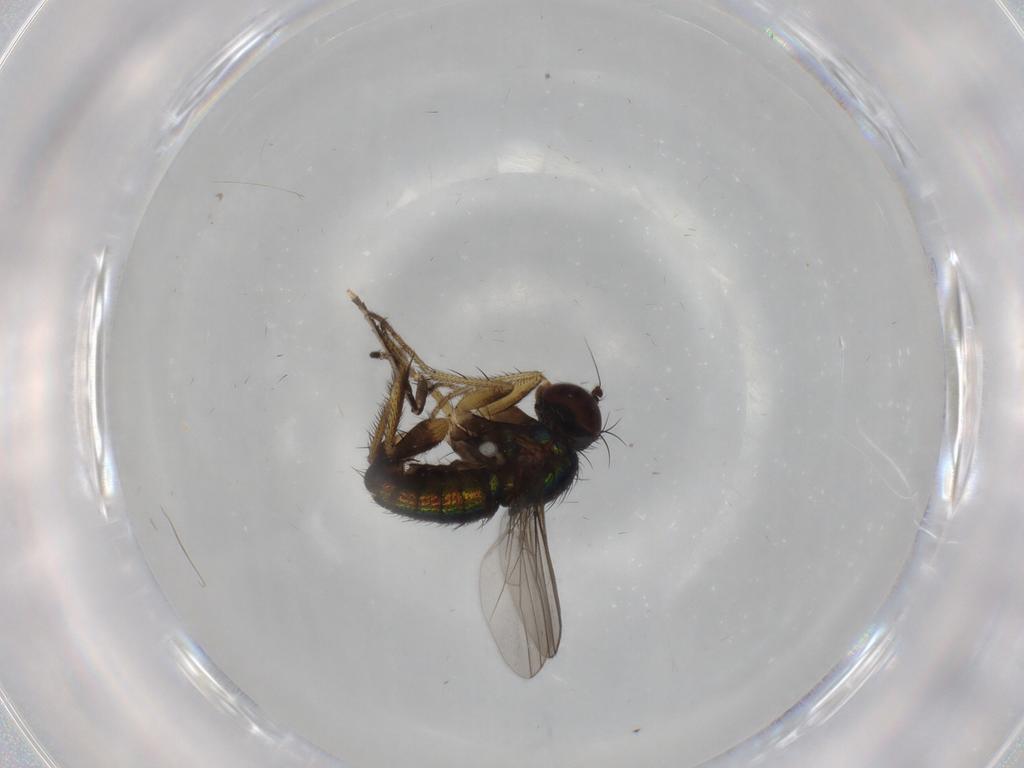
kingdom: Animalia
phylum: Arthropoda
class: Insecta
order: Diptera
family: Dolichopodidae
